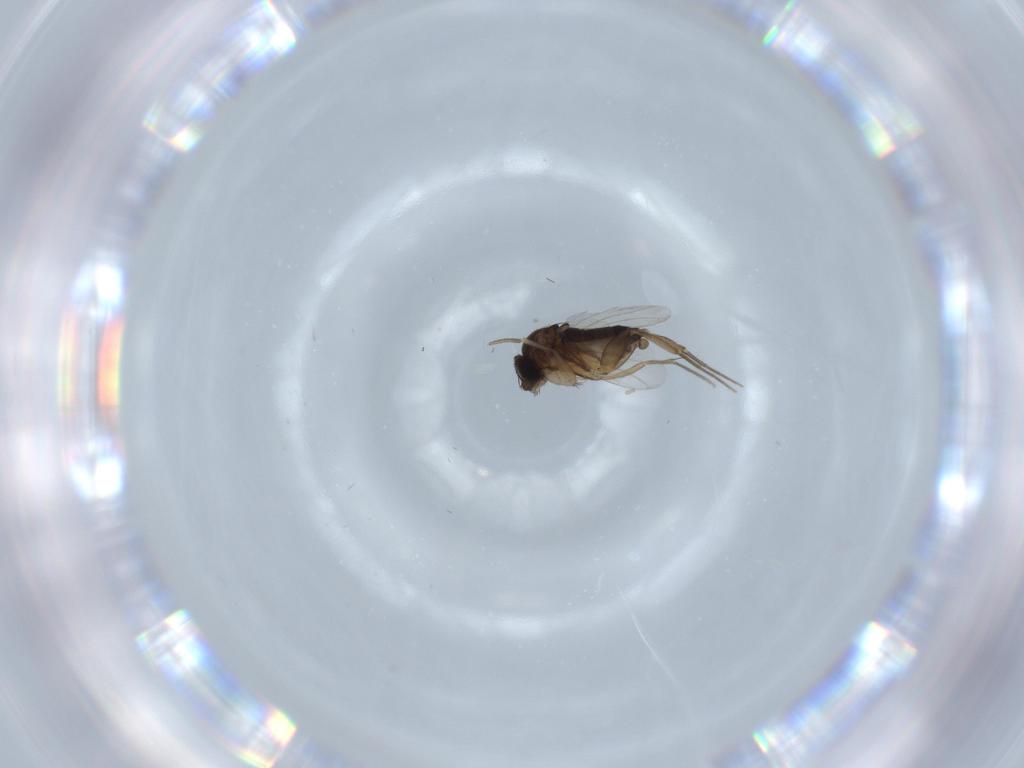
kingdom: Animalia
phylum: Arthropoda
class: Insecta
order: Diptera
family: Phoridae
